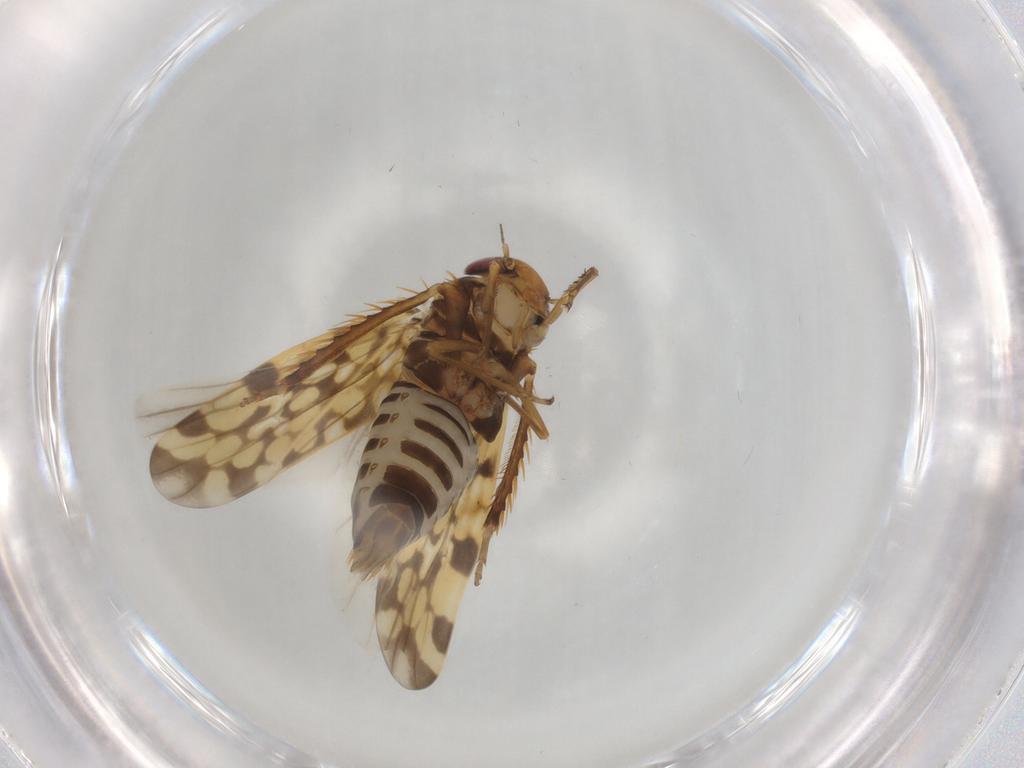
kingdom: Animalia
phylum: Arthropoda
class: Insecta
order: Hemiptera
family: Cicadellidae
